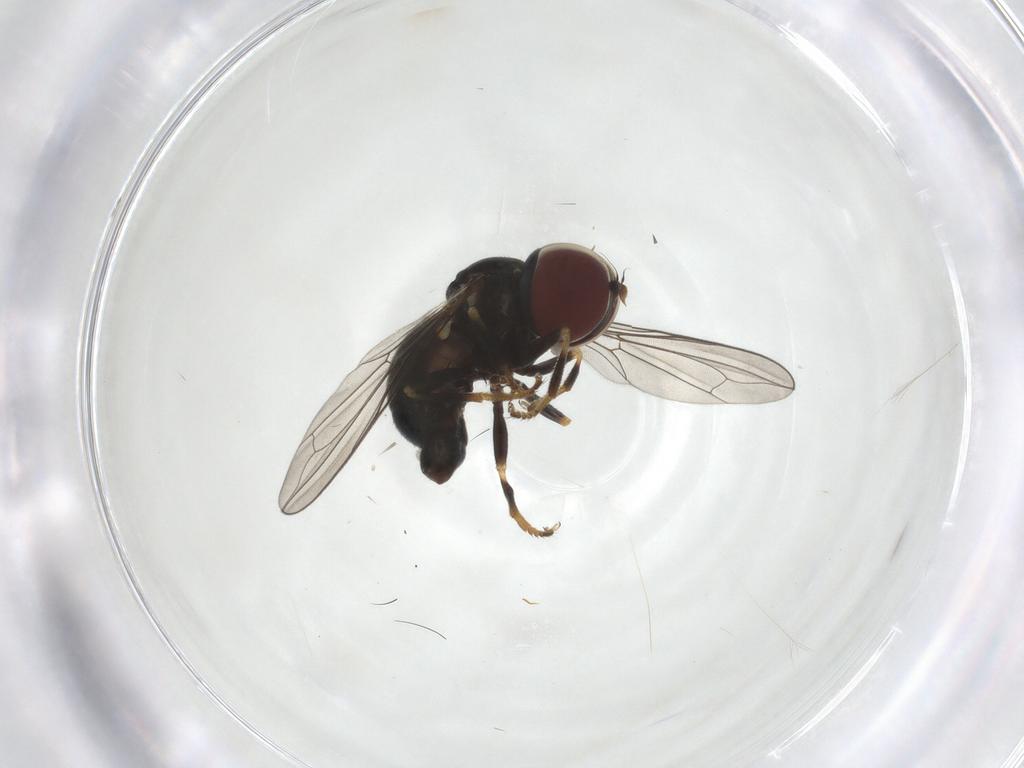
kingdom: Animalia
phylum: Arthropoda
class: Insecta
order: Diptera
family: Pipunculidae
